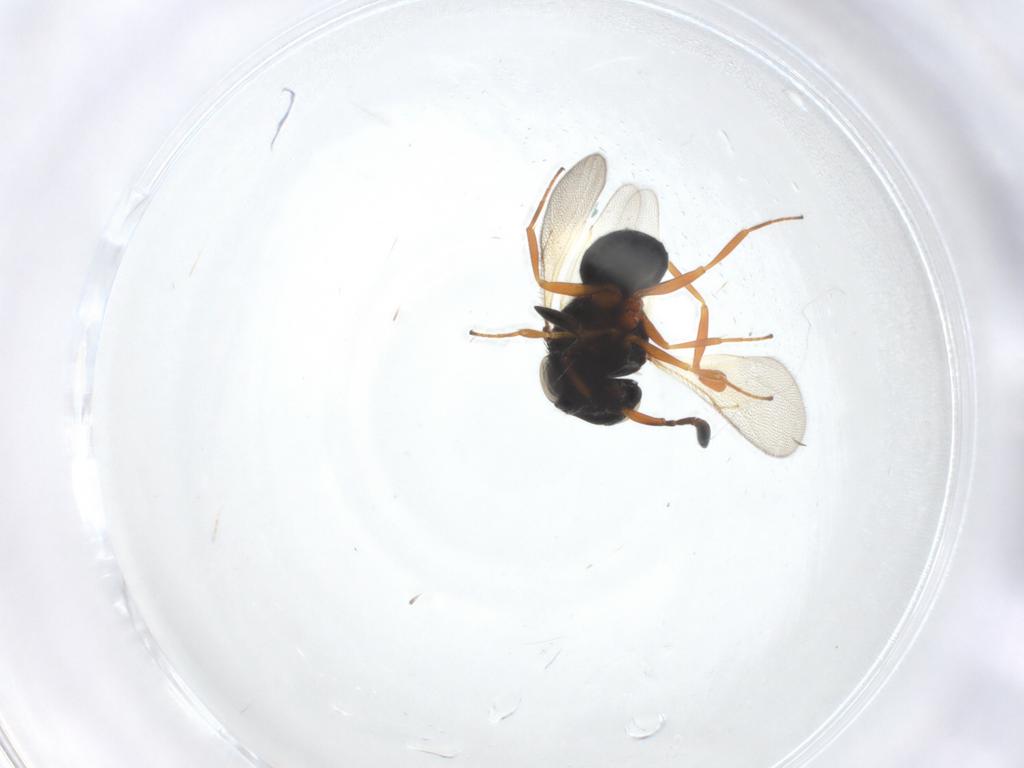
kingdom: Animalia
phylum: Arthropoda
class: Insecta
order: Hymenoptera
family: Scelionidae
